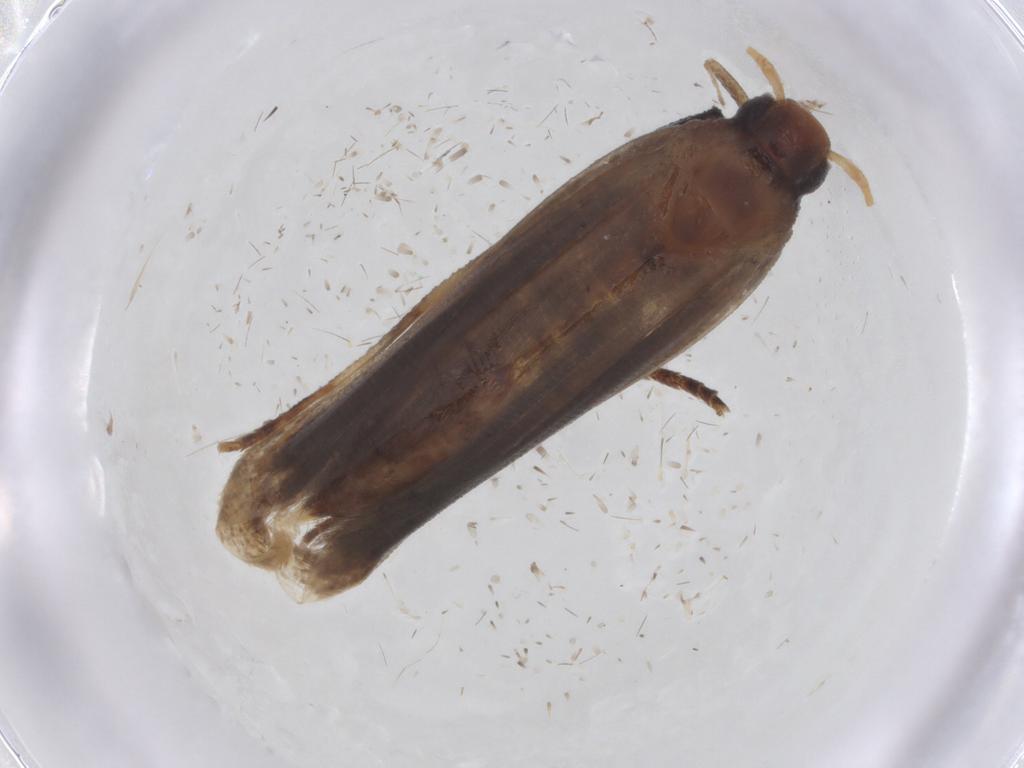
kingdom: Animalia
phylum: Arthropoda
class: Insecta
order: Lepidoptera
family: Gelechiidae
